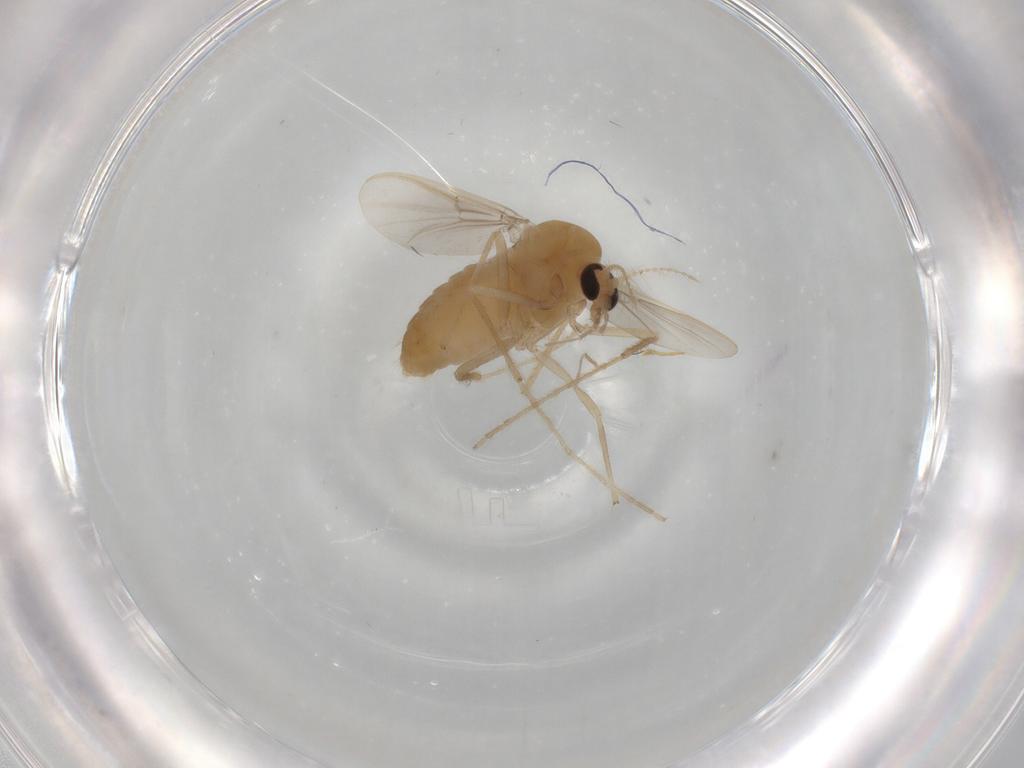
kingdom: Animalia
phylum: Arthropoda
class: Insecta
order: Diptera
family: Chironomidae
